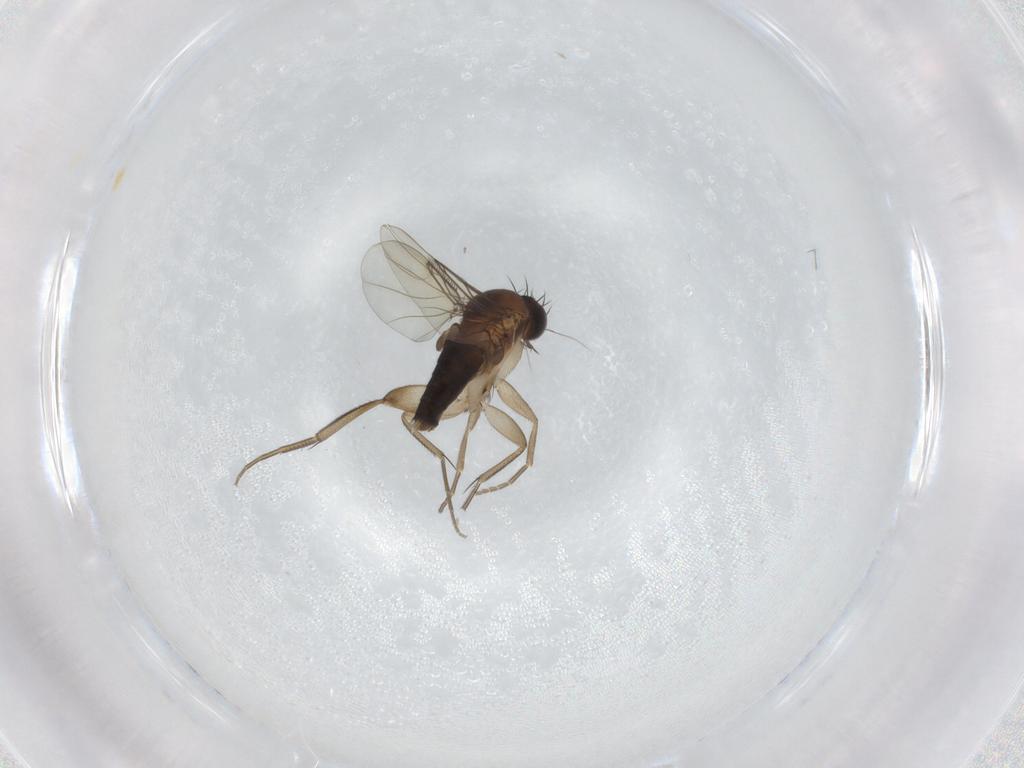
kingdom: Animalia
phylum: Arthropoda
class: Insecta
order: Diptera
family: Phoridae
